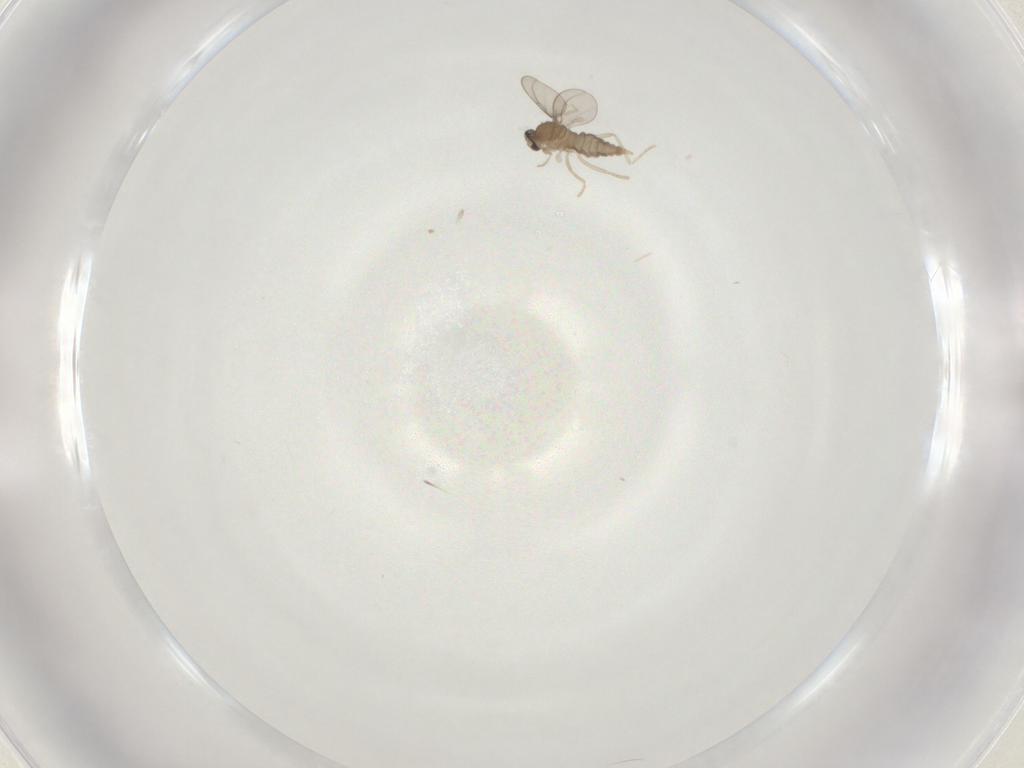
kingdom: Animalia
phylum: Arthropoda
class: Insecta
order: Diptera
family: Cecidomyiidae
